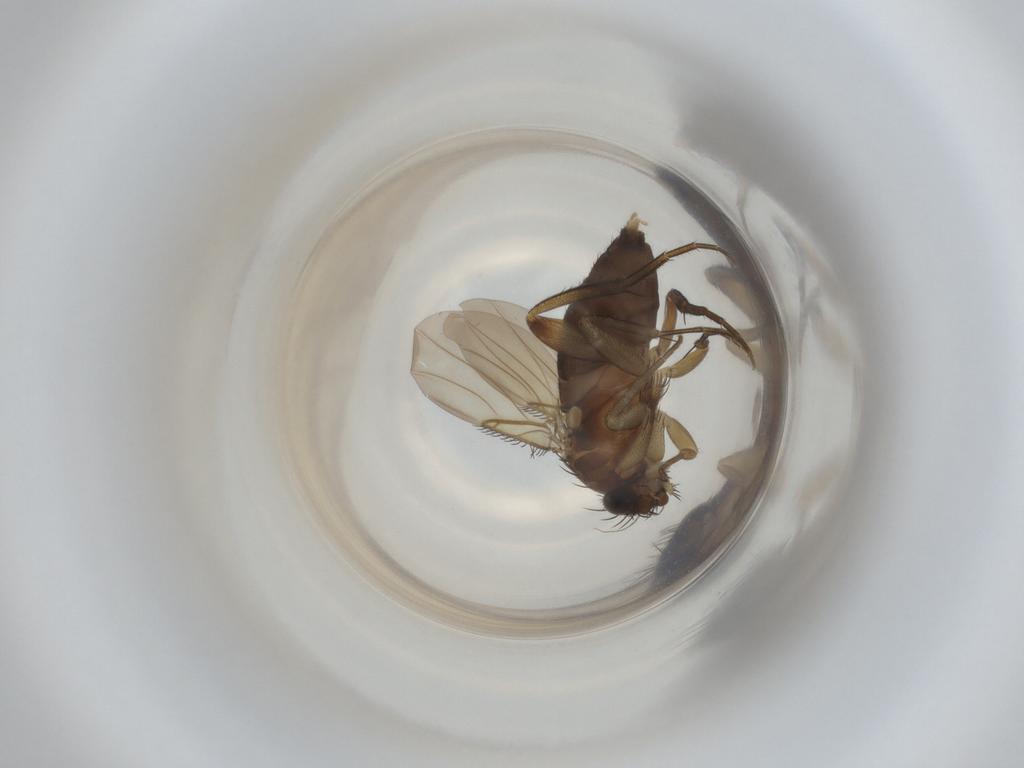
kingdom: Animalia
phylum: Arthropoda
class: Insecta
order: Diptera
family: Phoridae
